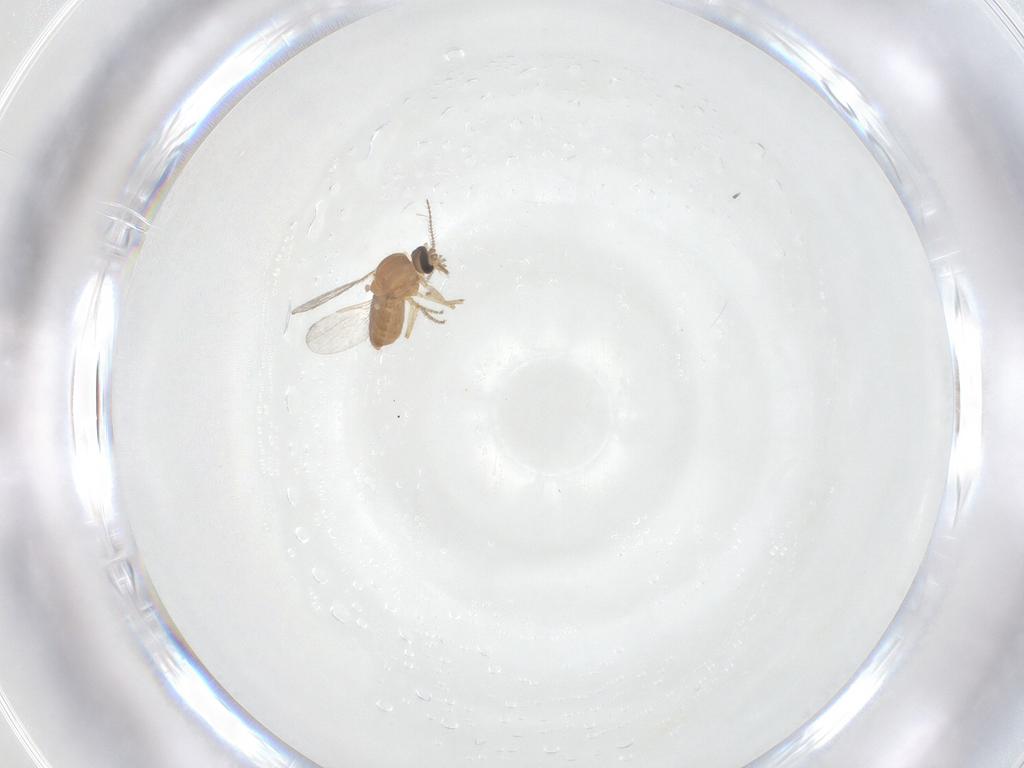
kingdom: Animalia
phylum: Arthropoda
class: Insecta
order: Diptera
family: Ceratopogonidae
